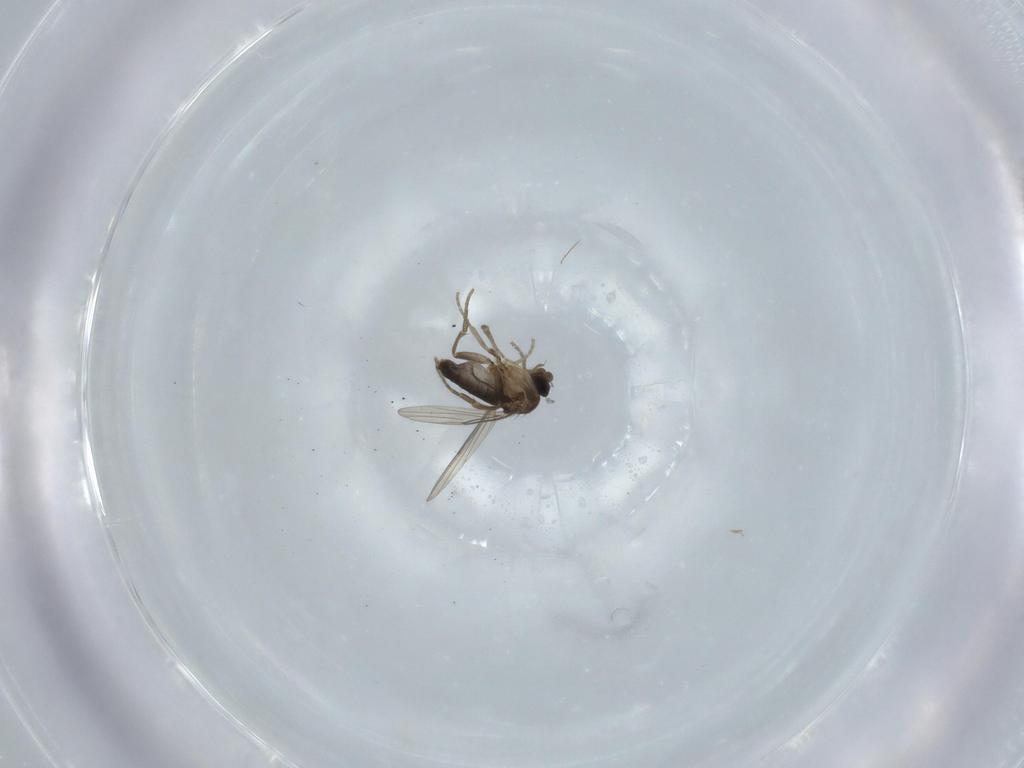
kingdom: Animalia
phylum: Arthropoda
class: Insecta
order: Diptera
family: Phoridae
